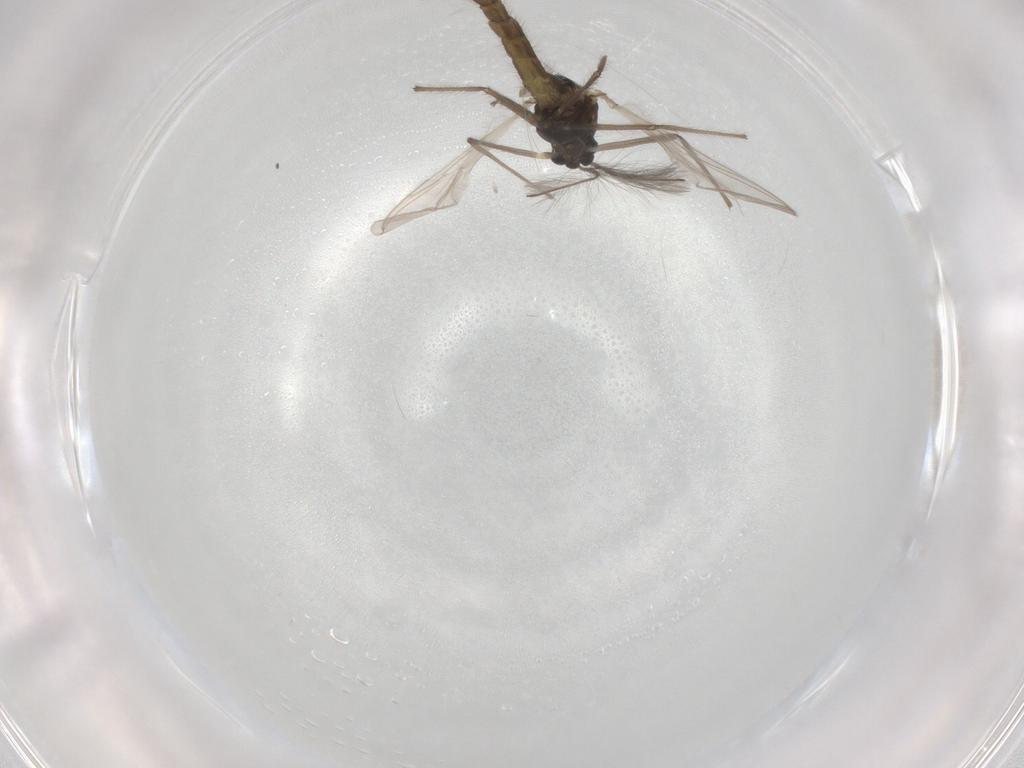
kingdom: Animalia
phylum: Arthropoda
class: Insecta
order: Diptera
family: Chironomidae
